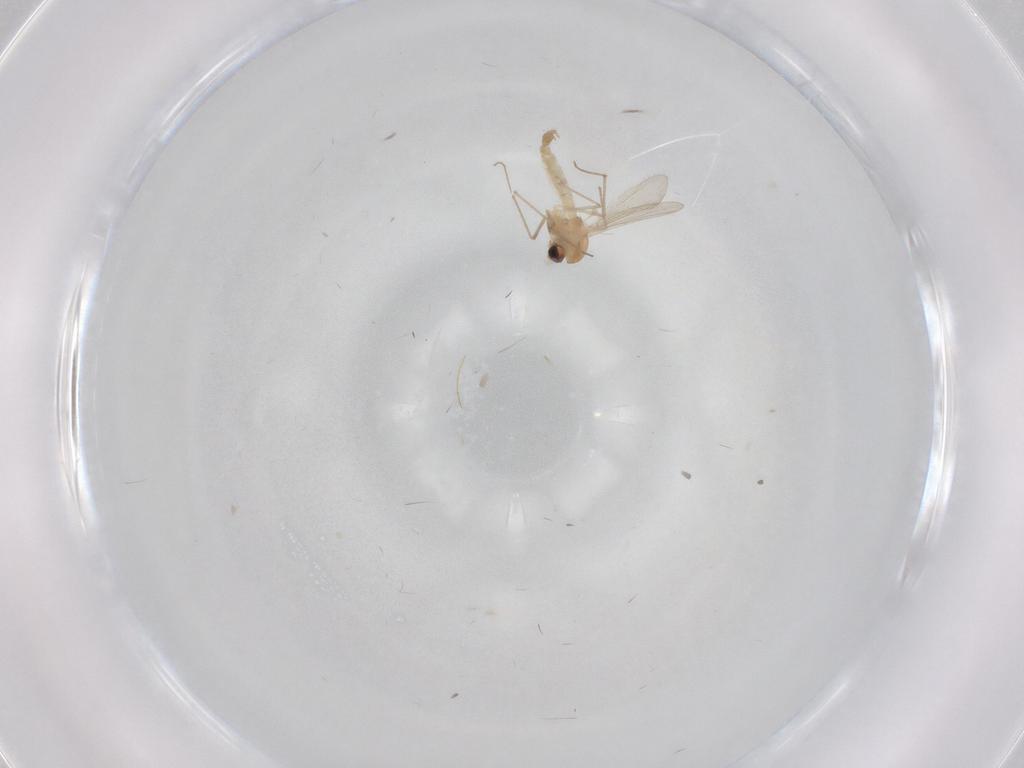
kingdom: Animalia
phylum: Arthropoda
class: Insecta
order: Diptera
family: Chironomidae
